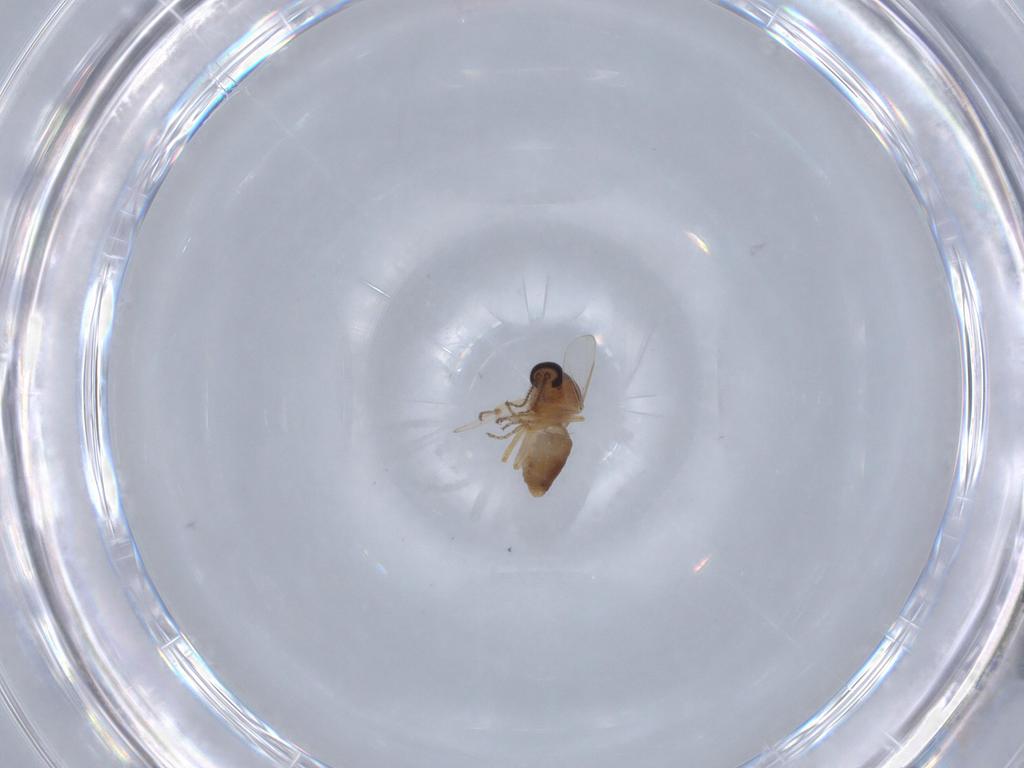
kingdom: Animalia
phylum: Arthropoda
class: Insecta
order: Diptera
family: Ceratopogonidae
